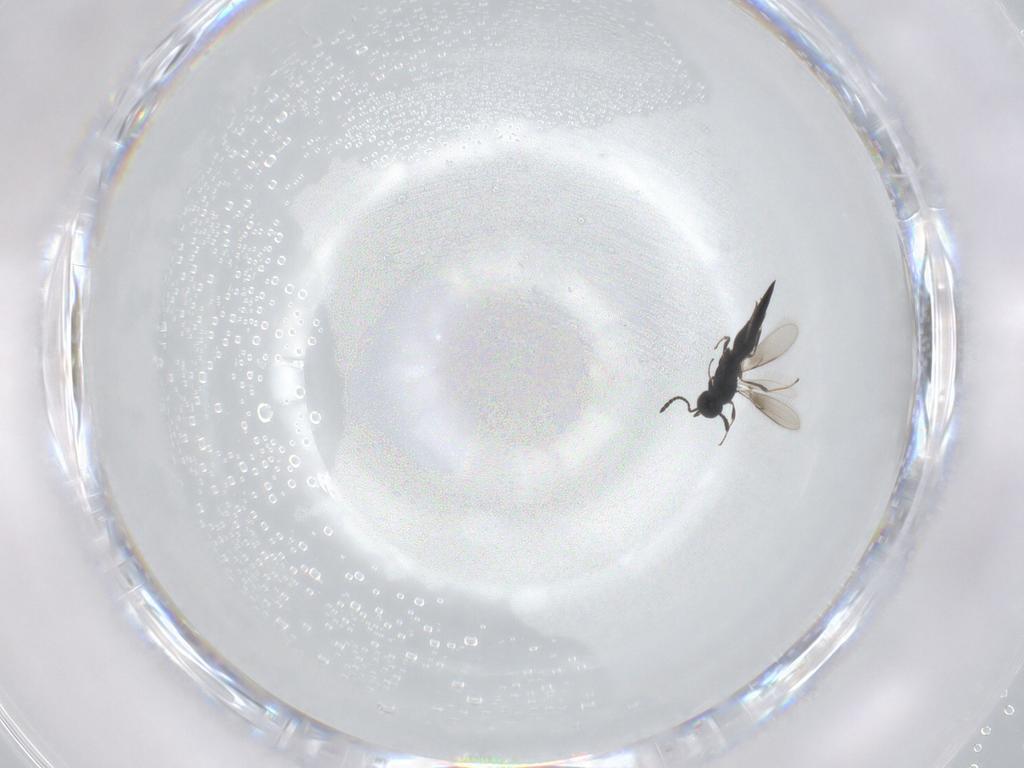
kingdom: Animalia
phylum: Arthropoda
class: Insecta
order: Hymenoptera
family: Scelionidae
